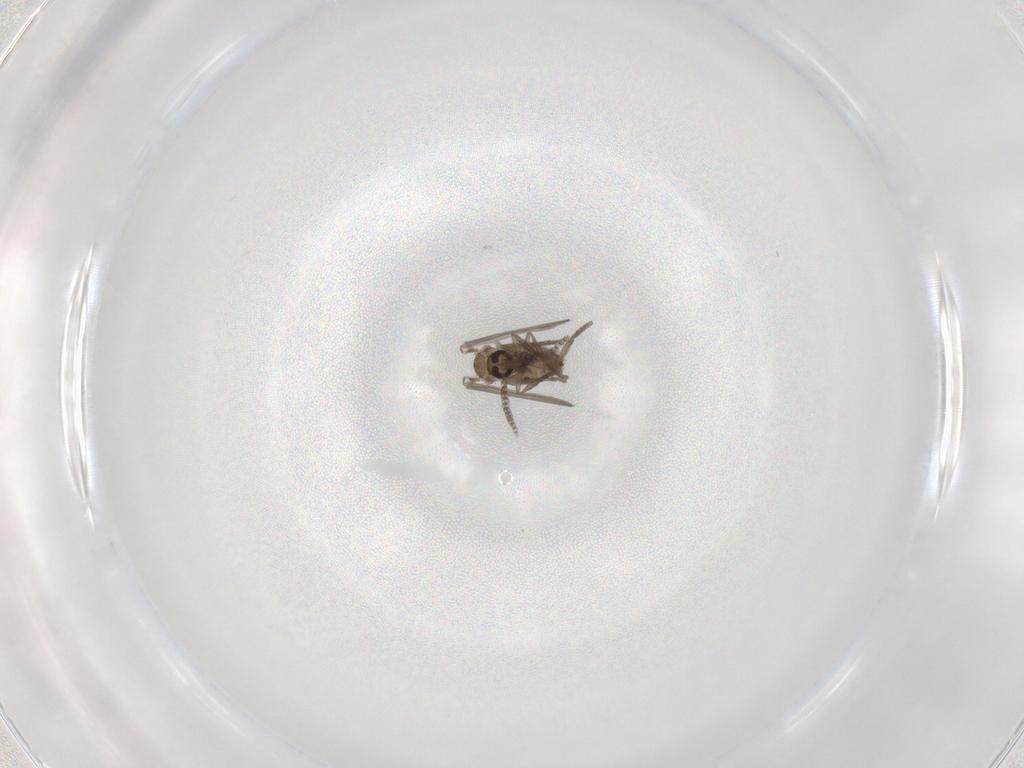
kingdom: Animalia
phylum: Arthropoda
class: Insecta
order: Diptera
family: Psychodidae
